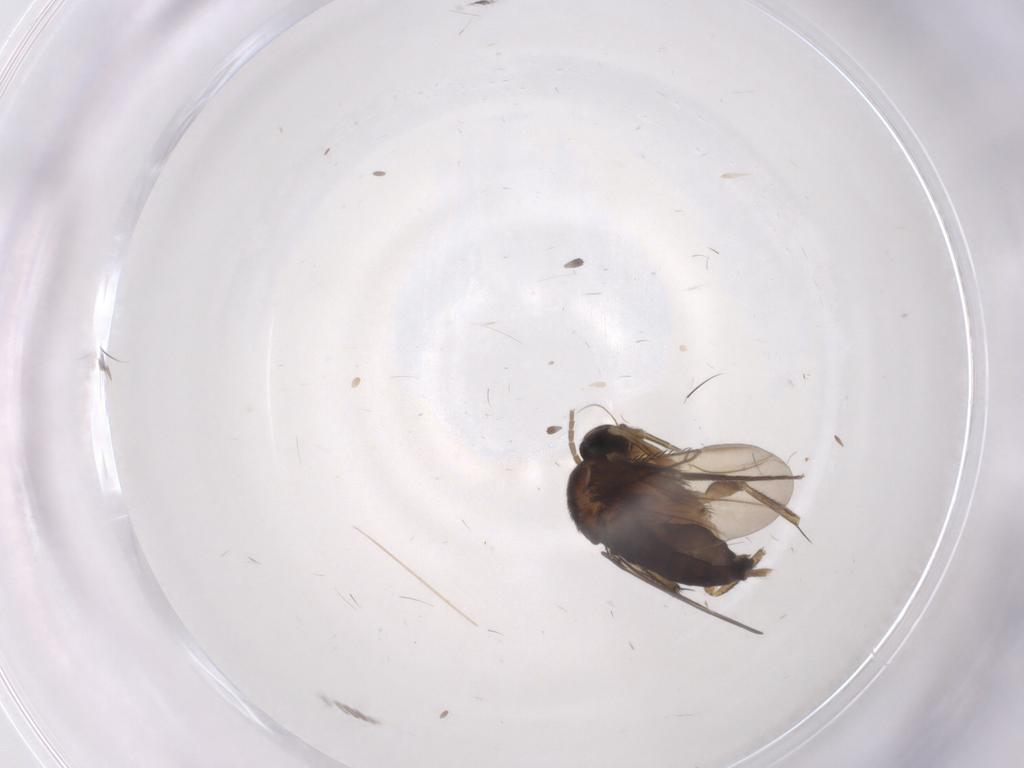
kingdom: Animalia
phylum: Arthropoda
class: Insecta
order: Diptera
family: Phoridae
